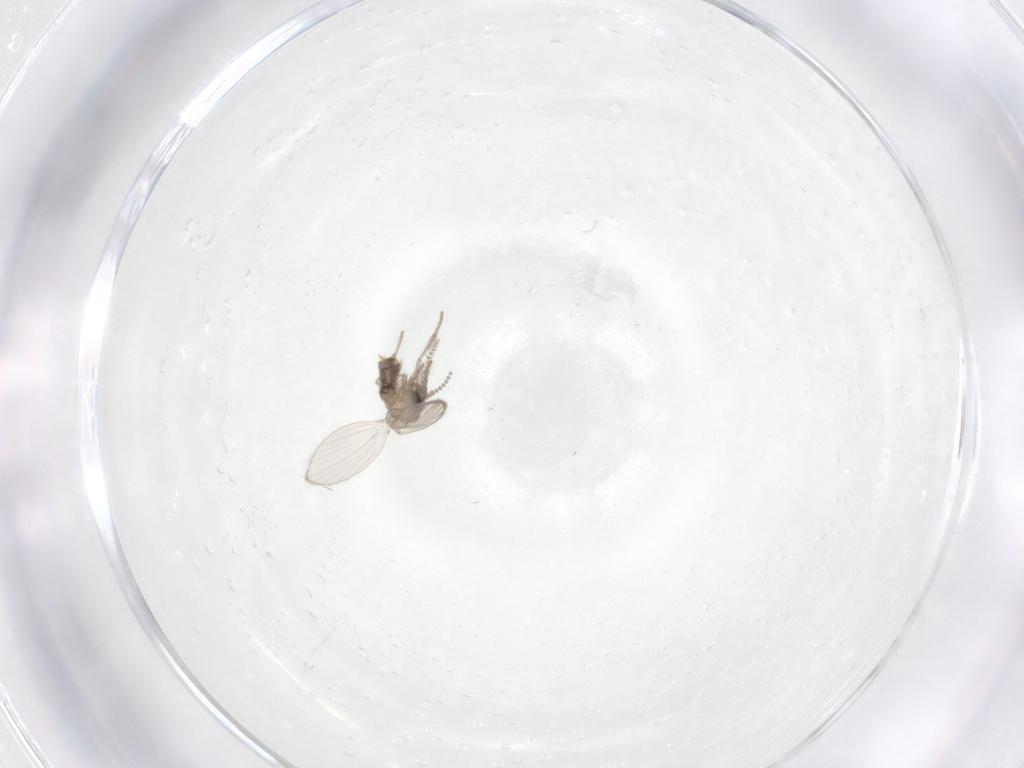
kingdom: Animalia
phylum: Arthropoda
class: Insecta
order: Diptera
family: Psychodidae
